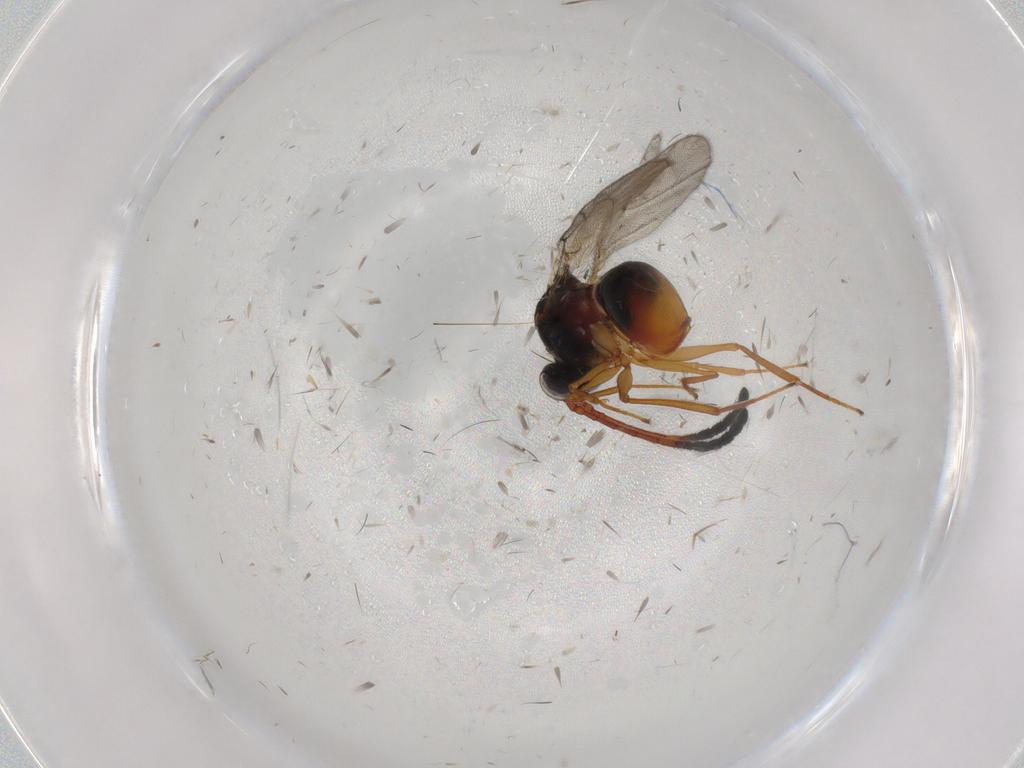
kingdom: Animalia
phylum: Arthropoda
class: Insecta
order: Hymenoptera
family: Figitidae
